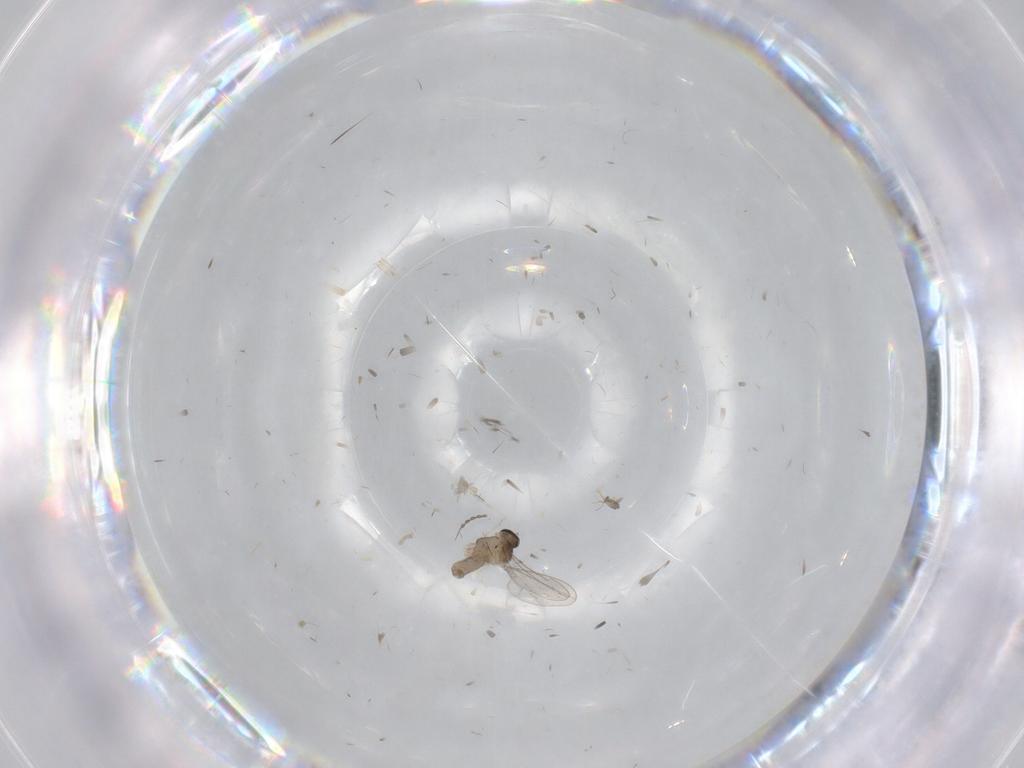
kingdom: Animalia
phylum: Arthropoda
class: Insecta
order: Diptera
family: Cecidomyiidae
